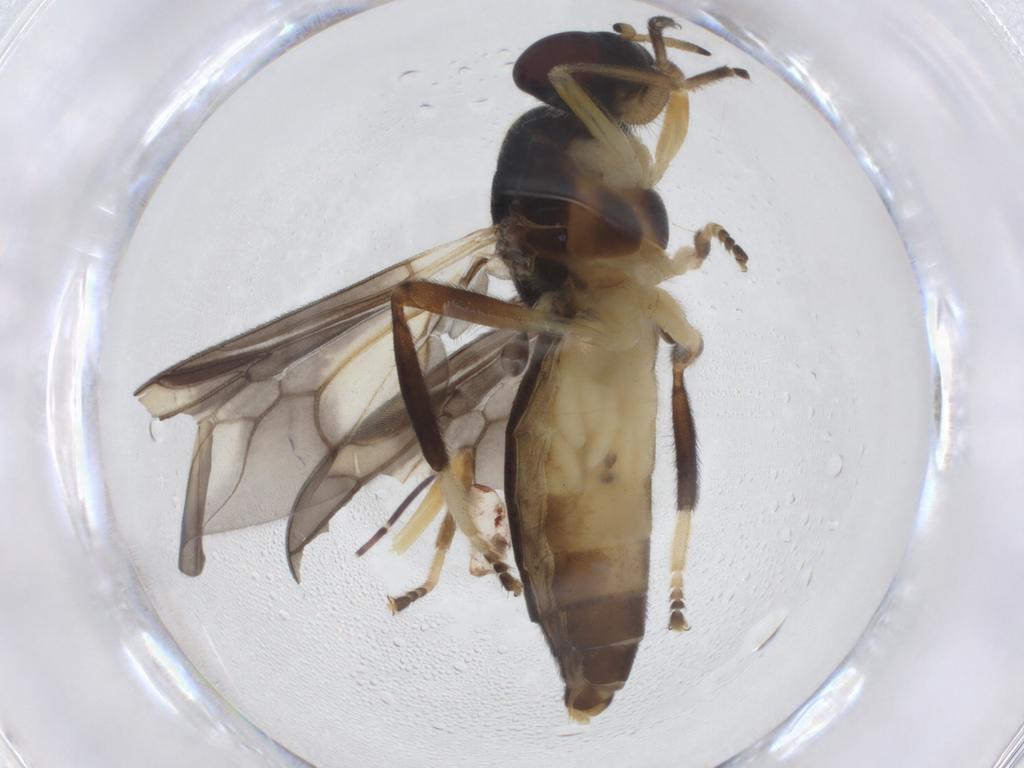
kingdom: Animalia
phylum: Arthropoda
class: Insecta
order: Diptera
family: Stratiomyidae
